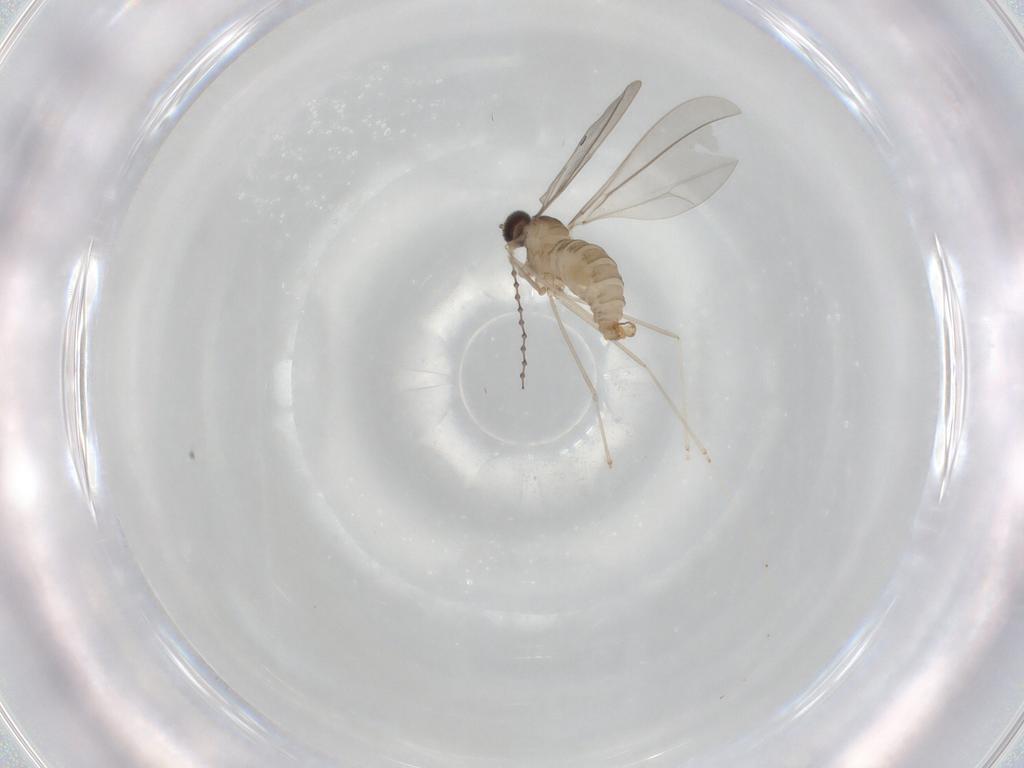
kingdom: Animalia
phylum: Arthropoda
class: Insecta
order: Diptera
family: Cecidomyiidae
